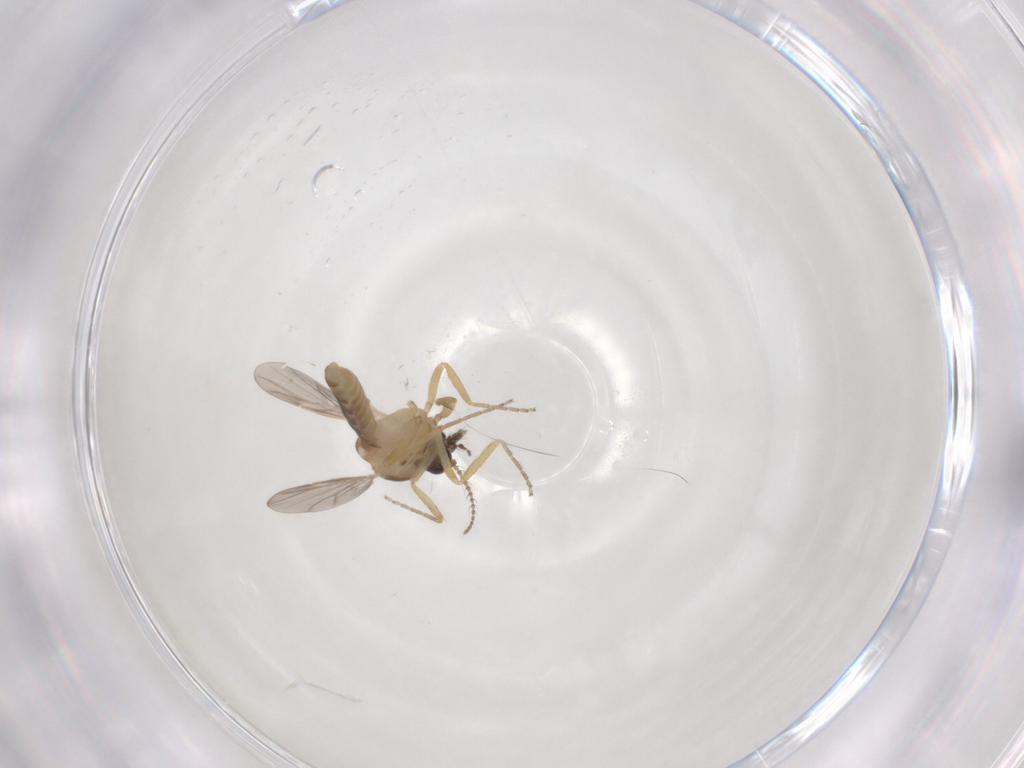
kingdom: Animalia
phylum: Arthropoda
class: Insecta
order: Diptera
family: Ceratopogonidae
